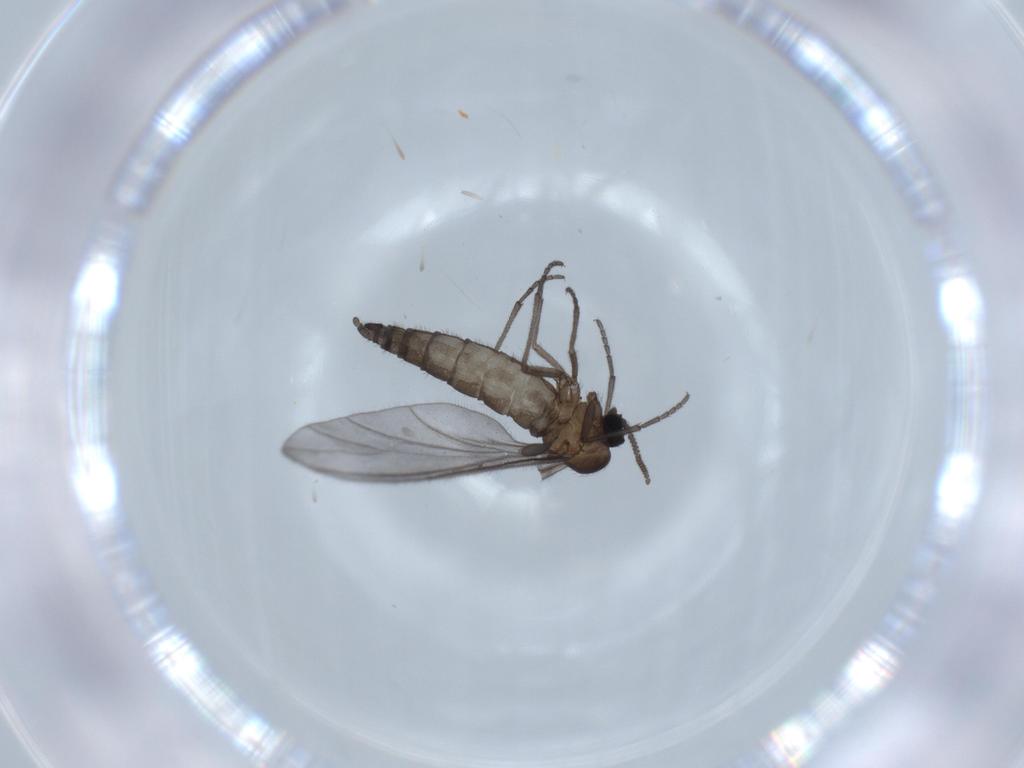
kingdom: Animalia
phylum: Arthropoda
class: Insecta
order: Diptera
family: Sciaridae
